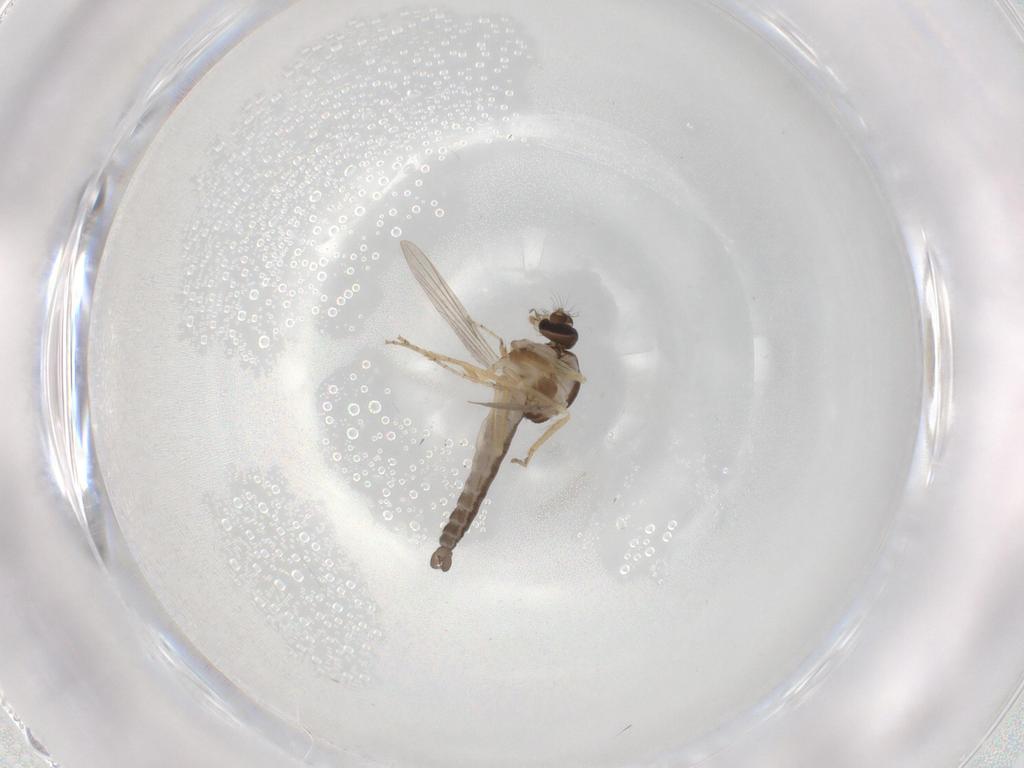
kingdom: Animalia
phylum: Arthropoda
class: Insecta
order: Diptera
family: Ceratopogonidae
